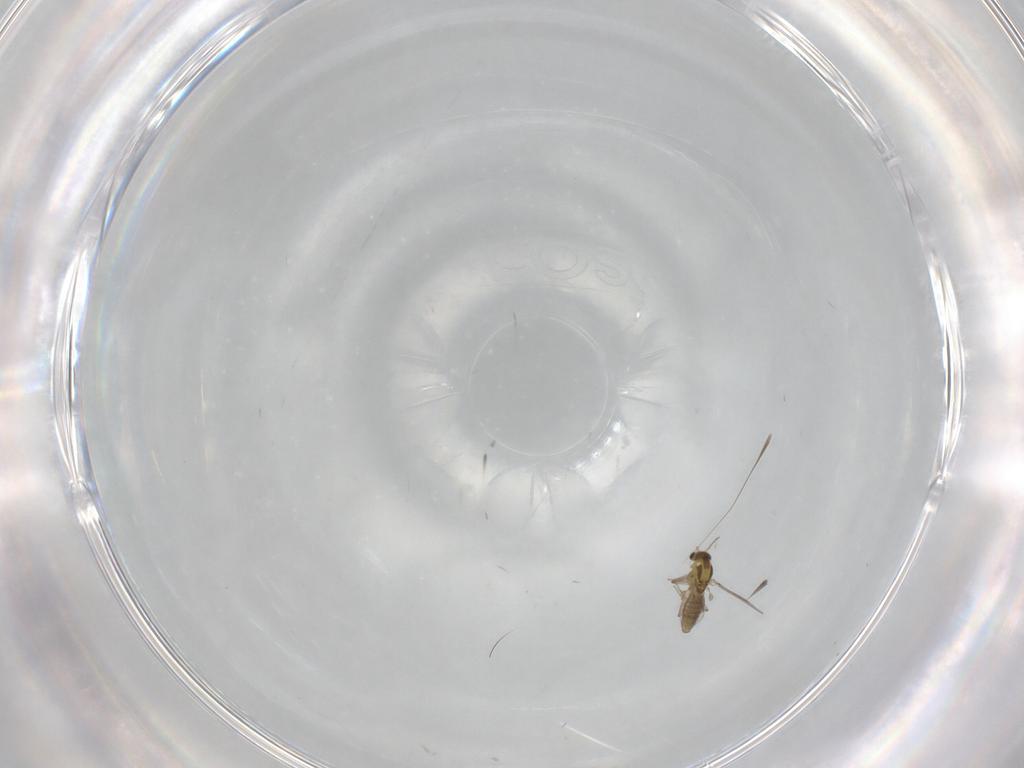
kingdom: Animalia
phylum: Arthropoda
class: Insecta
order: Diptera
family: Chironomidae
